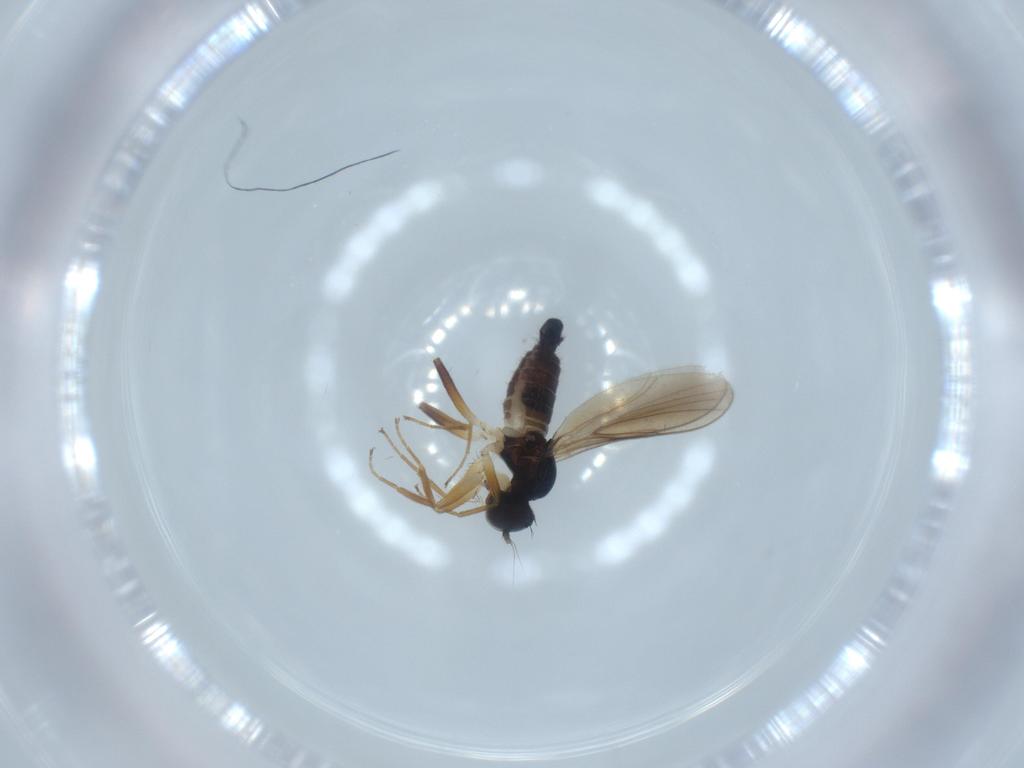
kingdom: Animalia
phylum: Arthropoda
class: Insecta
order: Diptera
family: Hybotidae
